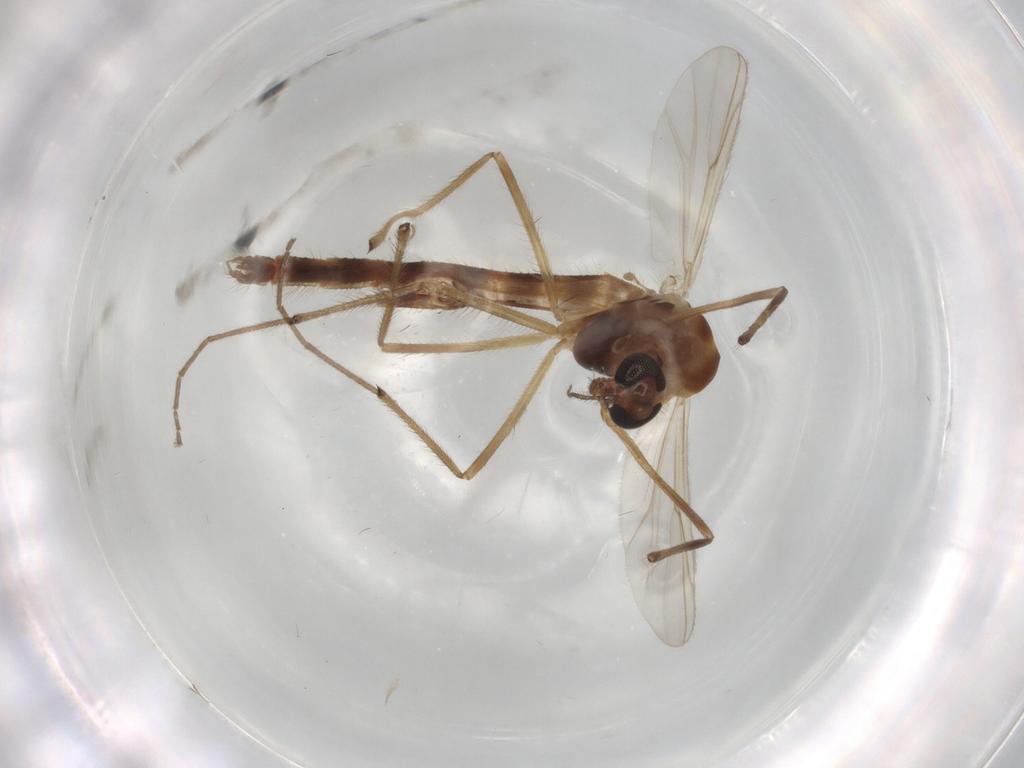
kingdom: Animalia
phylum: Arthropoda
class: Insecta
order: Diptera
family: Chironomidae
